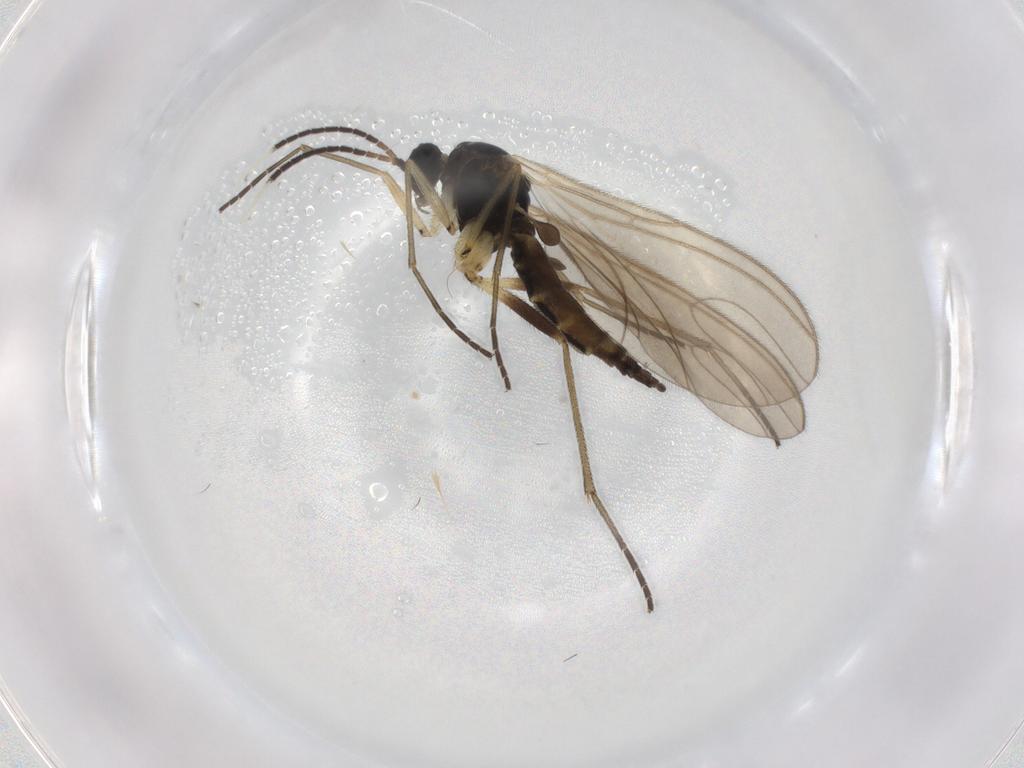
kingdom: Animalia
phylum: Arthropoda
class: Insecta
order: Diptera
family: Sciaridae
